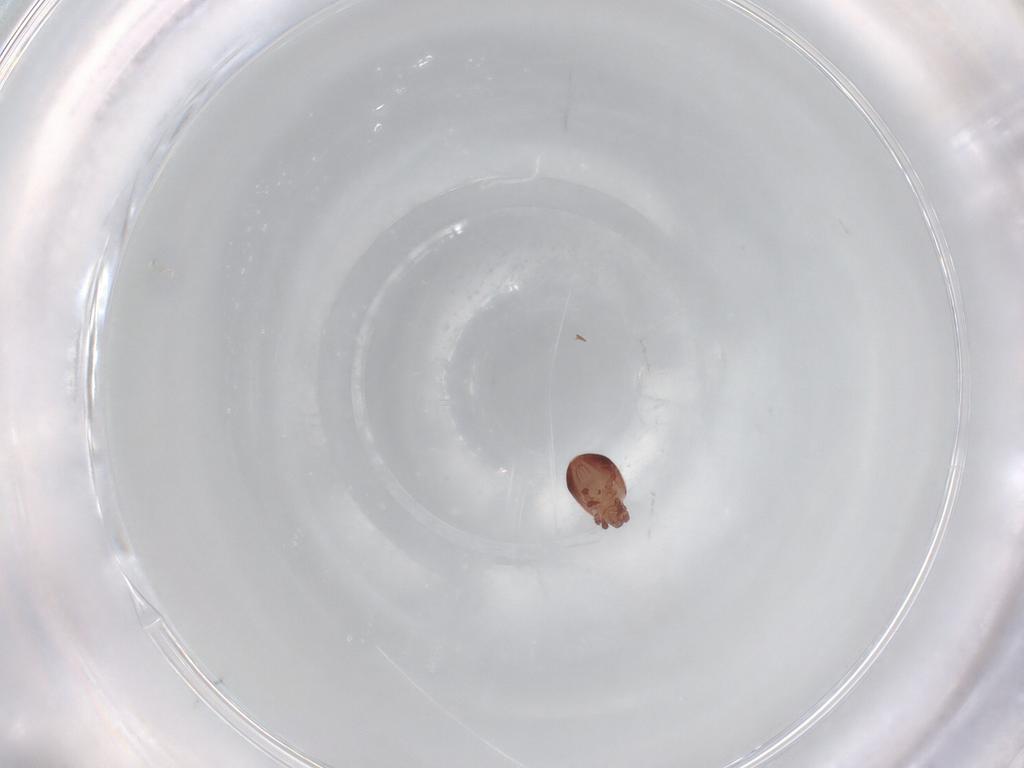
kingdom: Animalia
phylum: Arthropoda
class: Arachnida
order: Sarcoptiformes
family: Trhypochthoniidae
